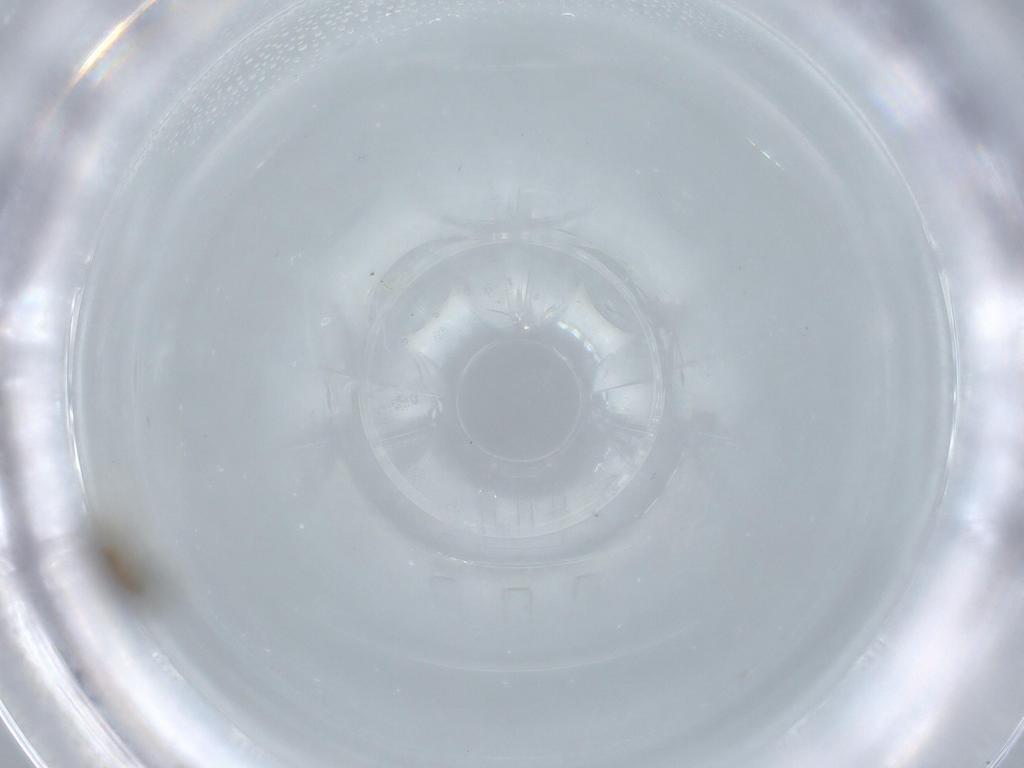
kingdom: Animalia
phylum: Arthropoda
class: Insecta
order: Diptera
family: Cecidomyiidae
